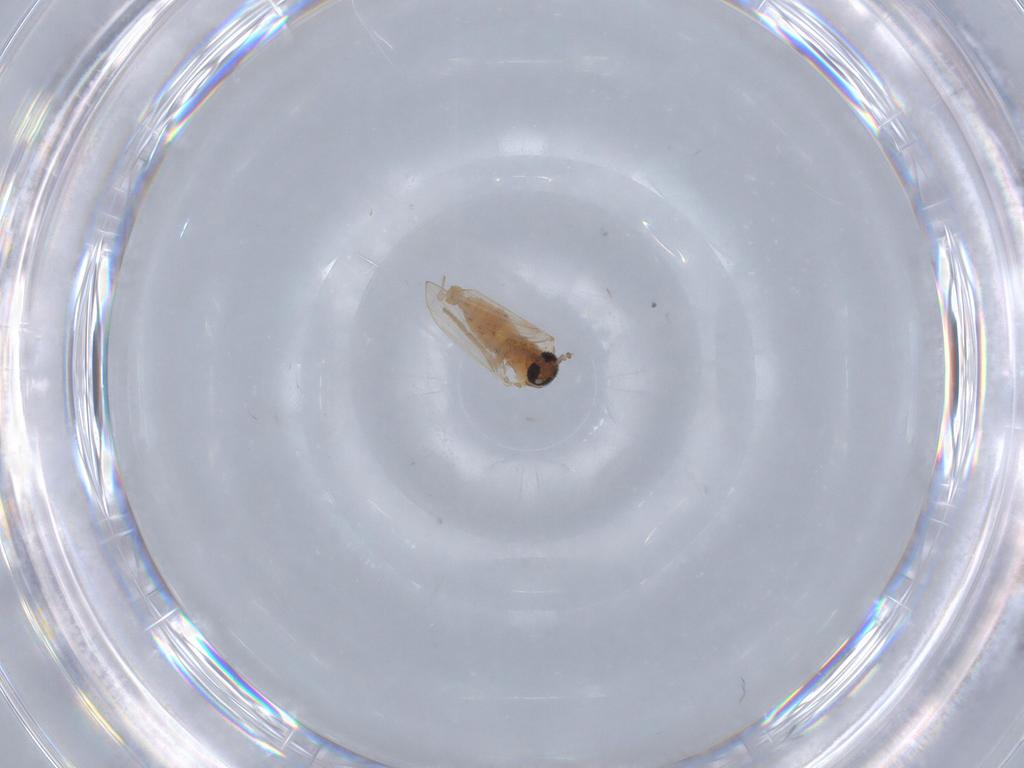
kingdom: Animalia
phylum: Arthropoda
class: Insecta
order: Diptera
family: Psychodidae
